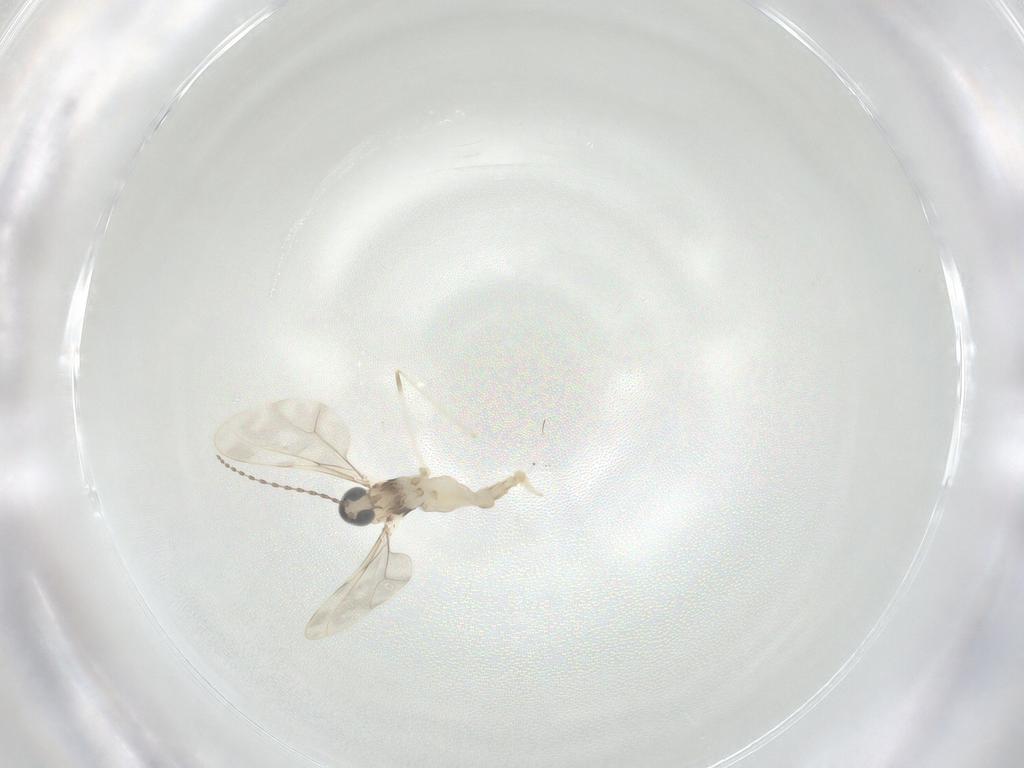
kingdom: Animalia
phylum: Arthropoda
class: Insecta
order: Diptera
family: Cecidomyiidae
